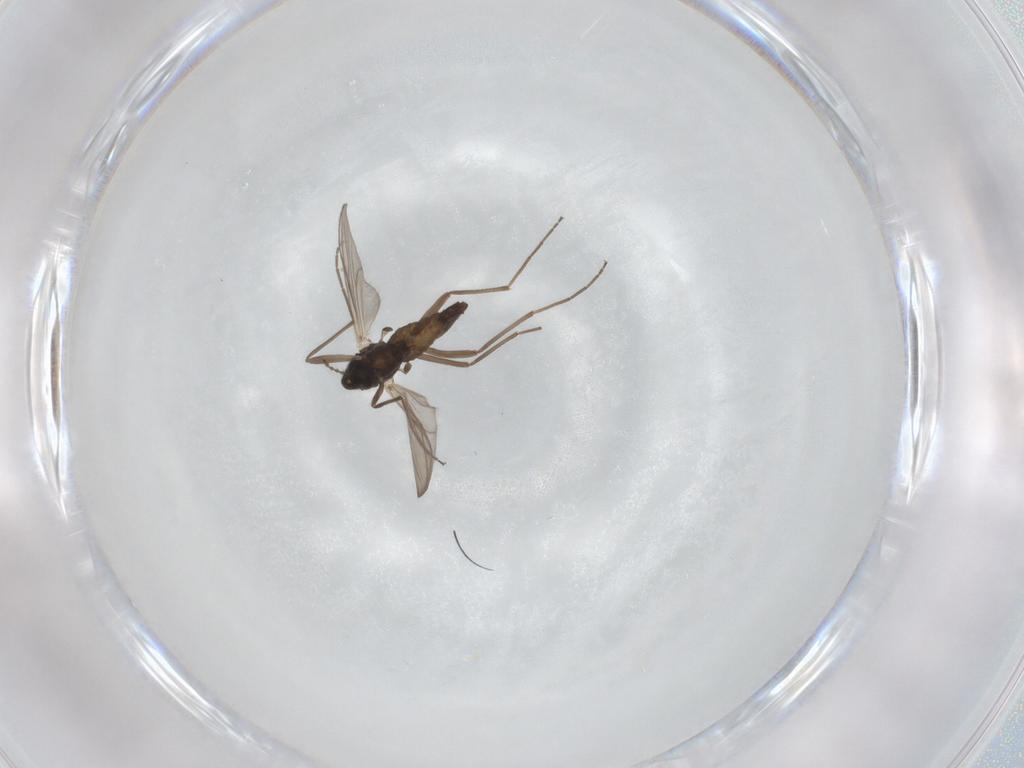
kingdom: Animalia
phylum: Arthropoda
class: Insecta
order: Diptera
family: Chironomidae
